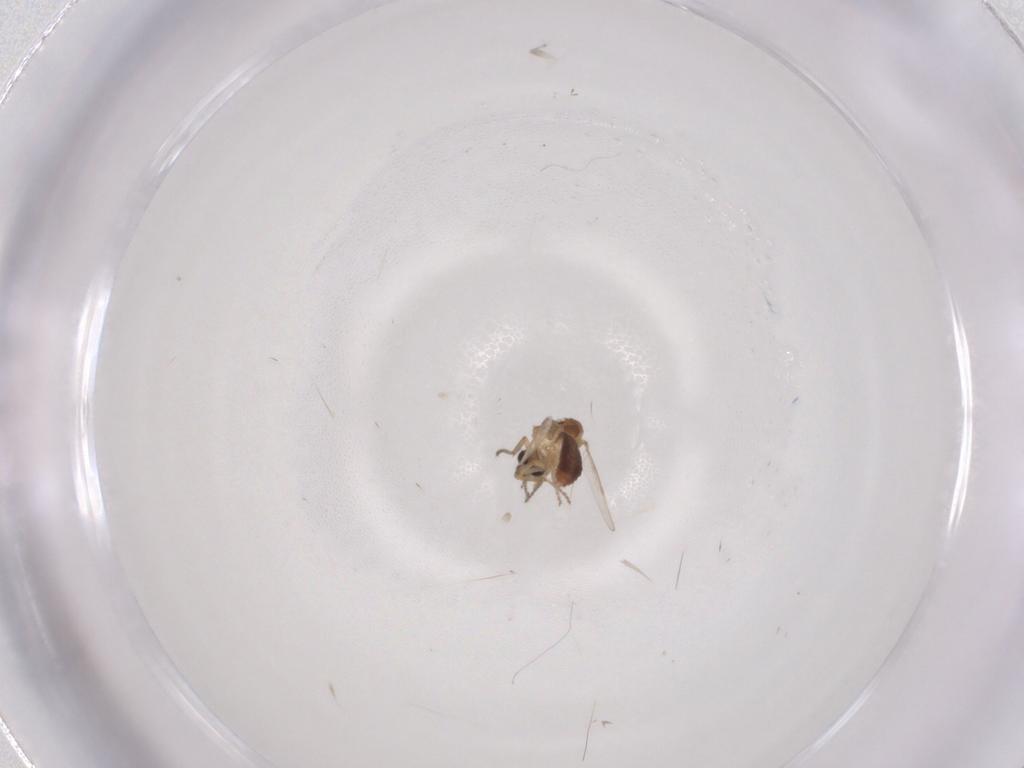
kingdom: Animalia
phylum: Arthropoda
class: Insecta
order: Diptera
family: Ceratopogonidae
